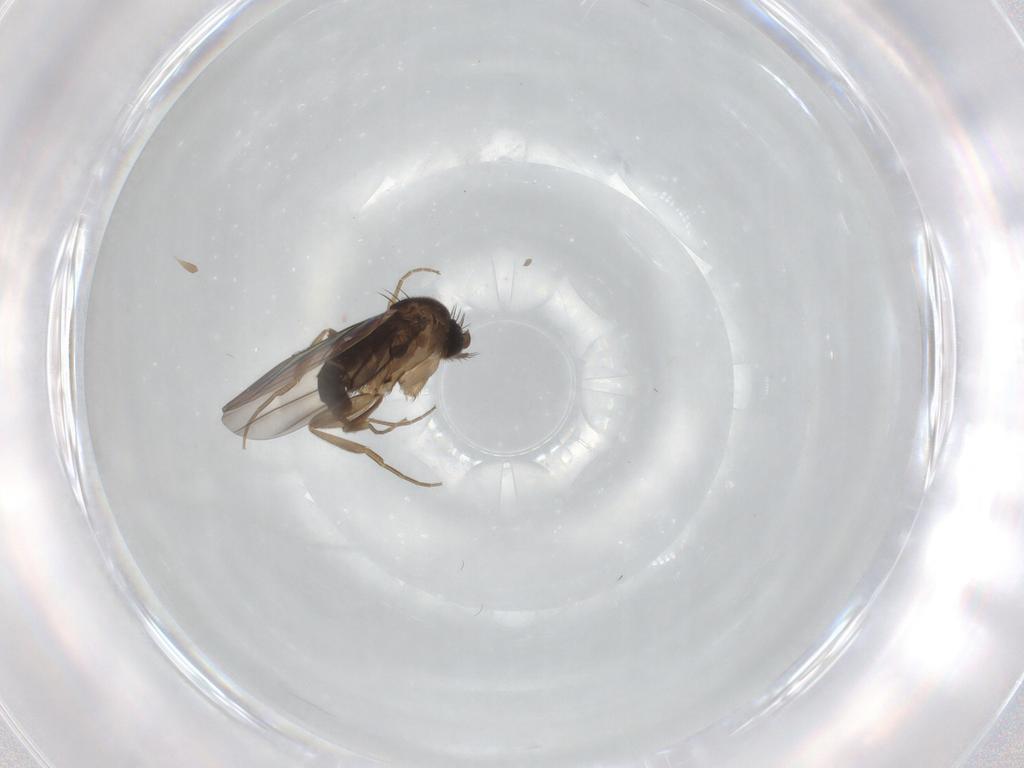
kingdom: Animalia
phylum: Arthropoda
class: Insecta
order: Diptera
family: Phoridae
